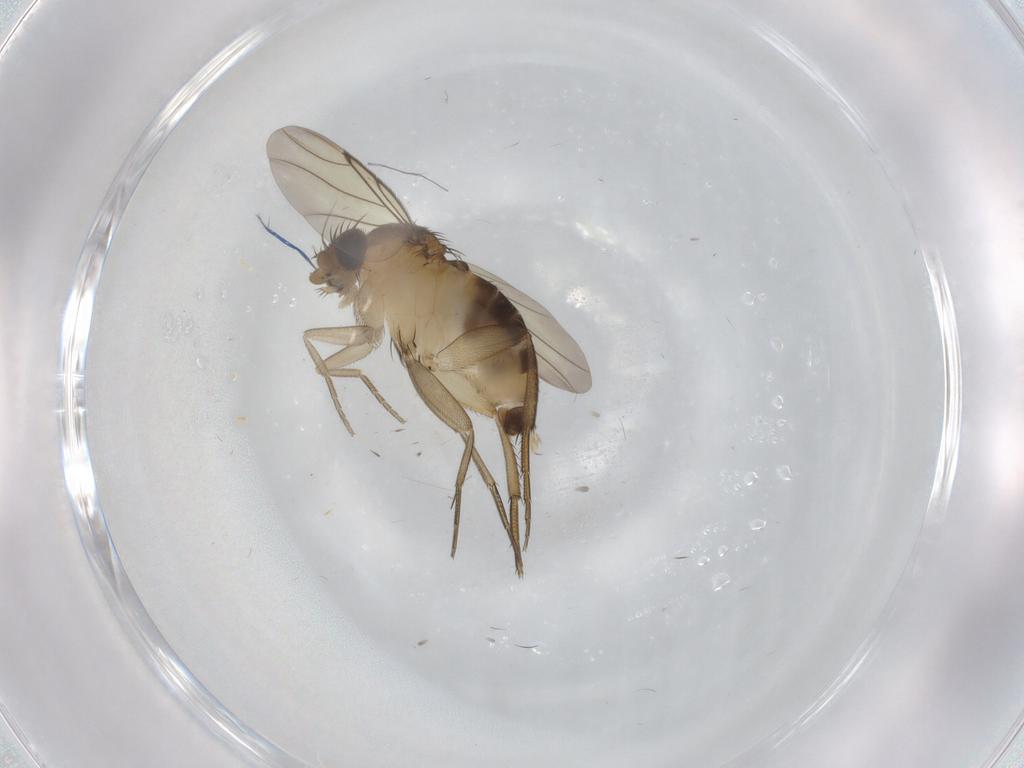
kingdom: Animalia
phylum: Arthropoda
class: Insecta
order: Diptera
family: Phoridae
